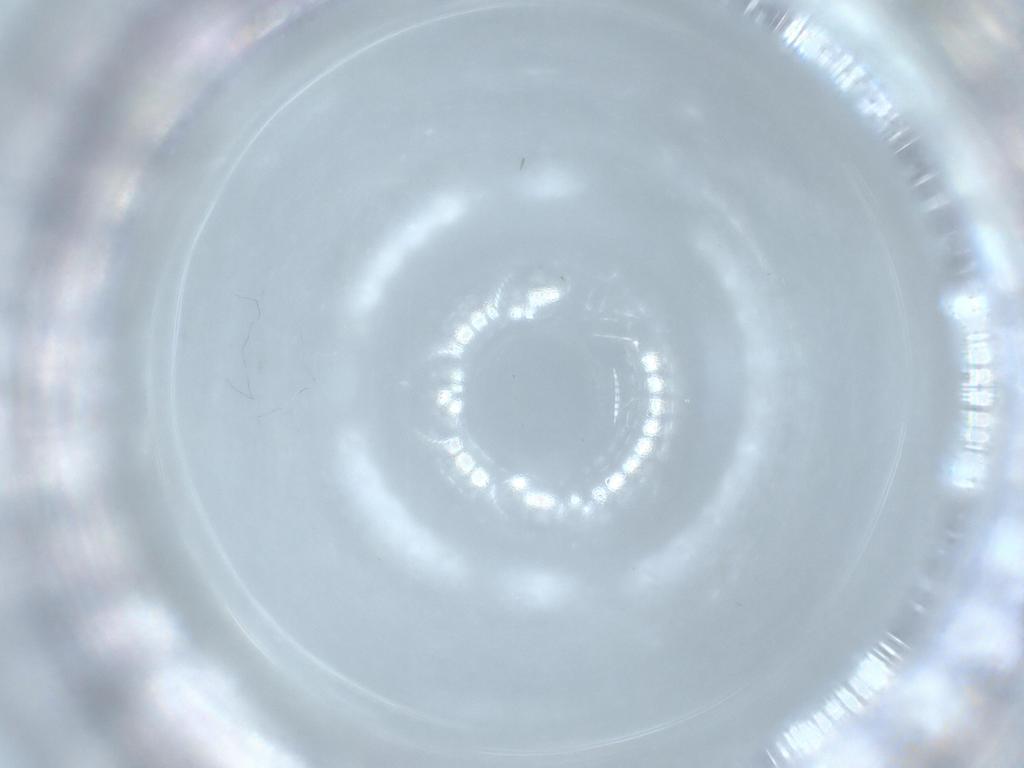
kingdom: Animalia
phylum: Arthropoda
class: Insecta
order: Diptera
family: Cecidomyiidae
